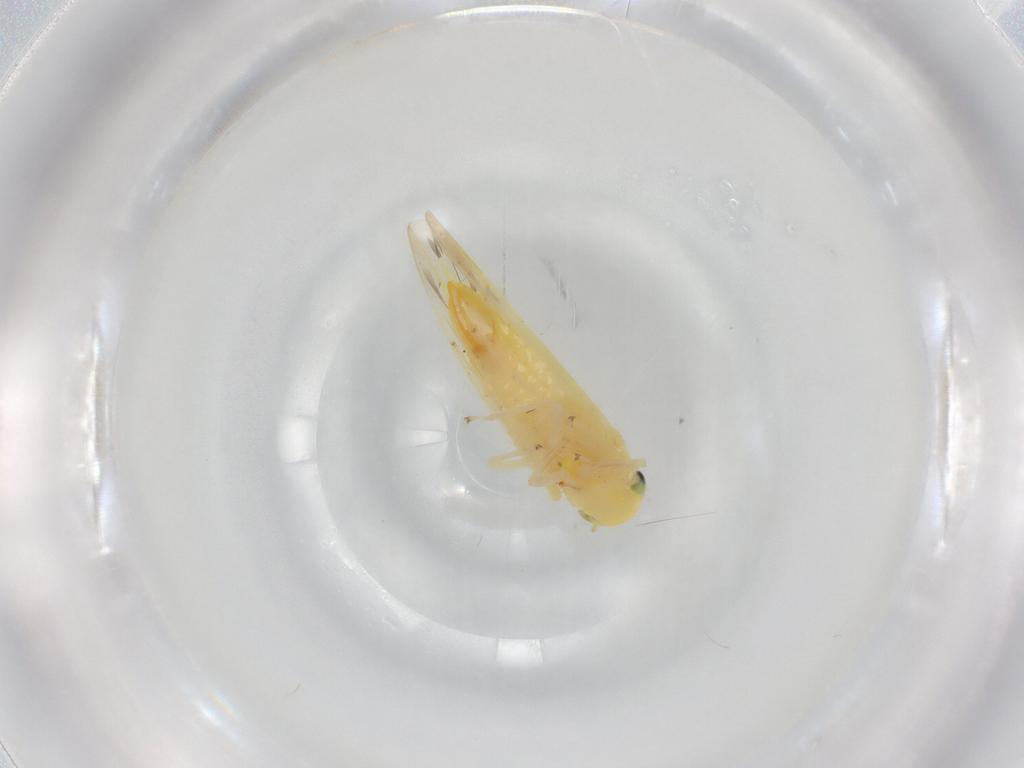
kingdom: Animalia
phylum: Arthropoda
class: Insecta
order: Hemiptera
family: Cicadellidae
